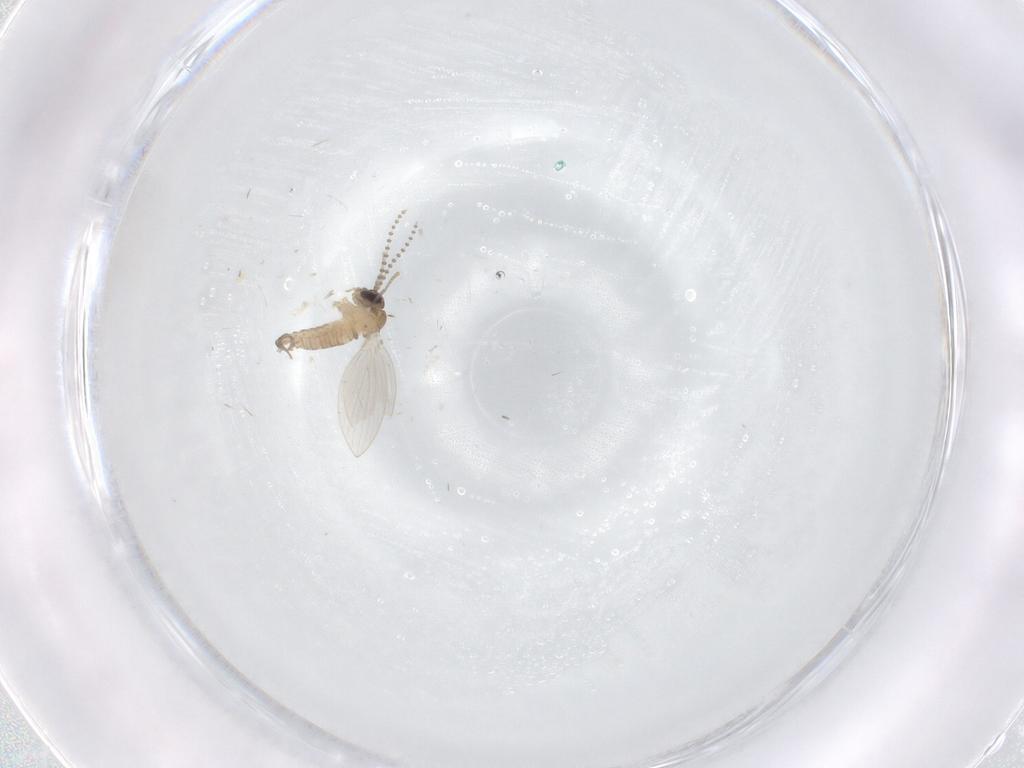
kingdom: Animalia
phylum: Arthropoda
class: Insecta
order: Diptera
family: Psychodidae
